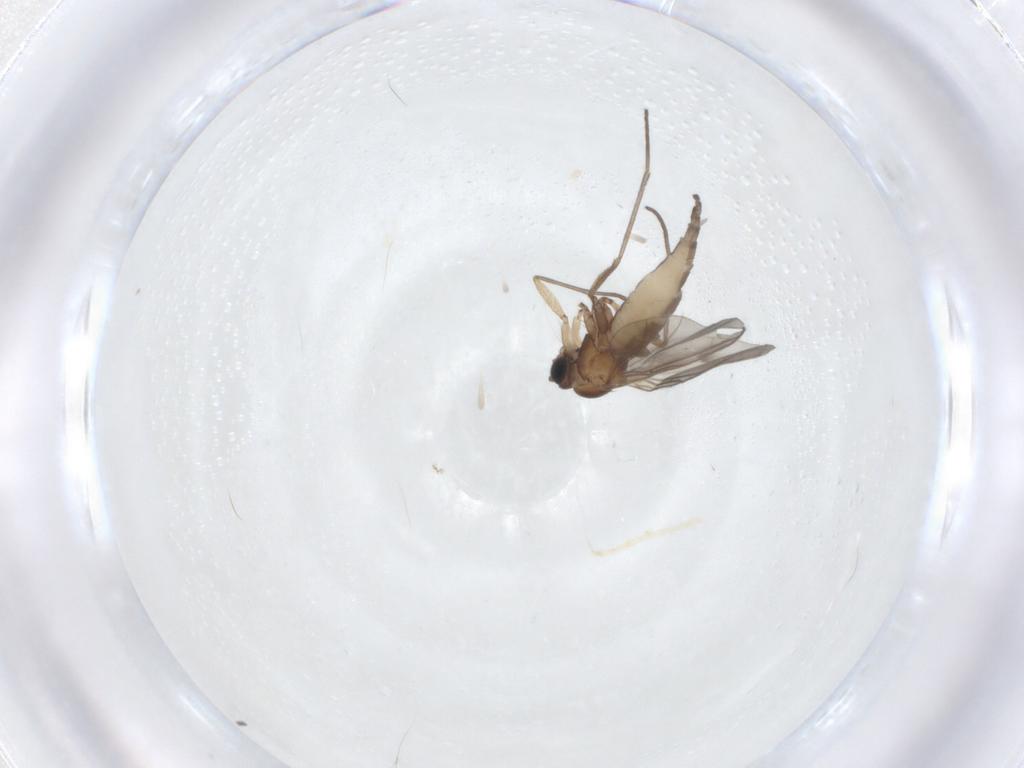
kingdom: Animalia
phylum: Arthropoda
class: Insecta
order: Diptera
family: Sciaridae
